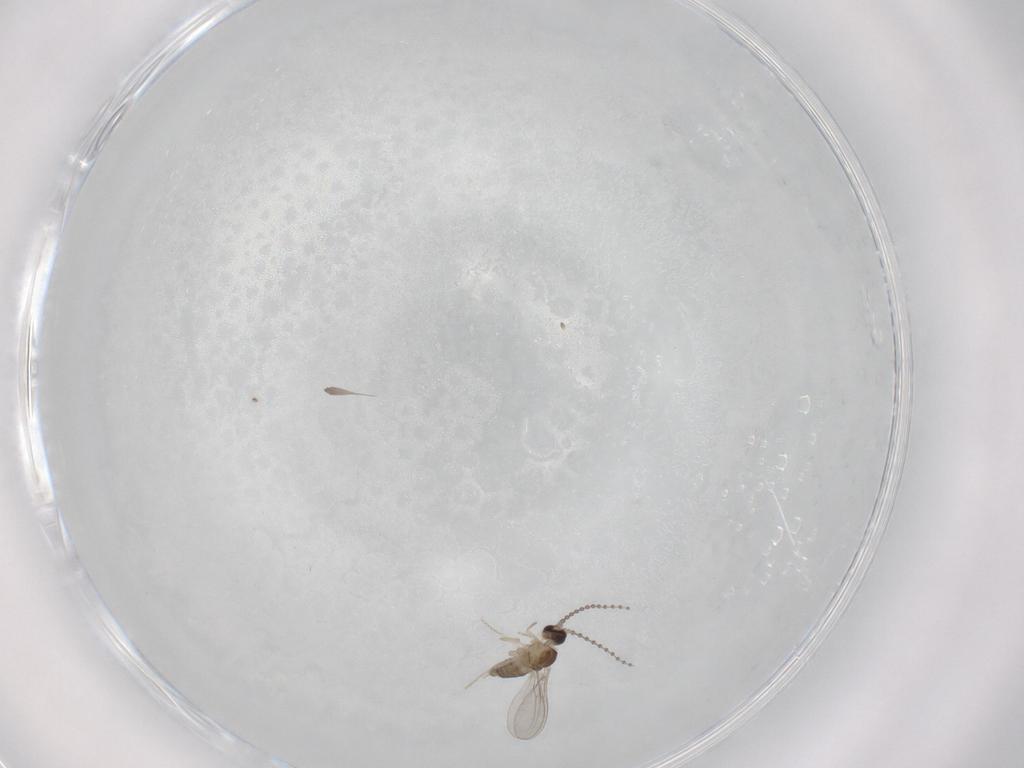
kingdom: Animalia
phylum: Arthropoda
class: Insecta
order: Diptera
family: Cecidomyiidae
